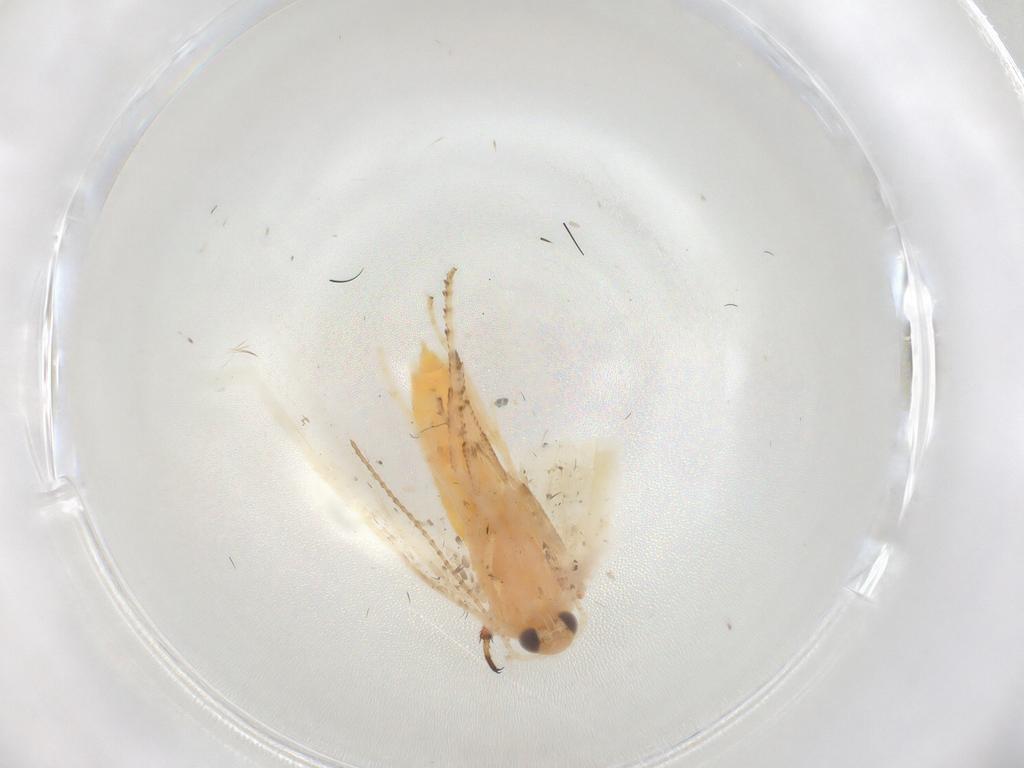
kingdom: Animalia
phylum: Arthropoda
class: Insecta
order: Lepidoptera
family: Argyresthiidae
